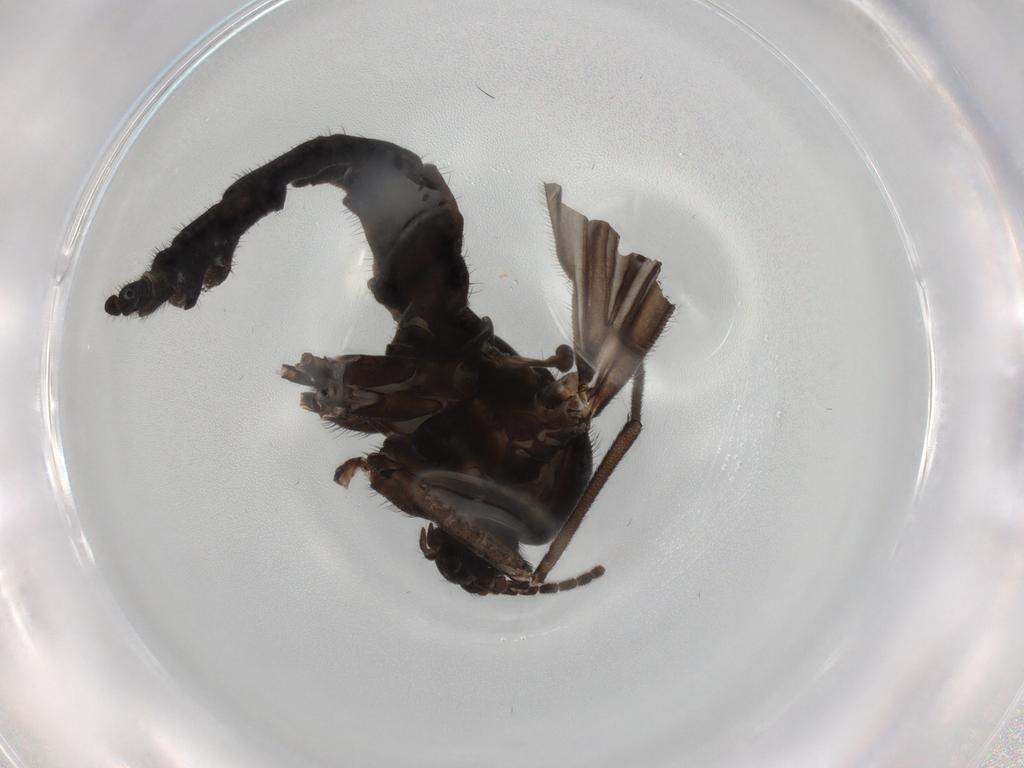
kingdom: Animalia
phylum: Arthropoda
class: Insecta
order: Diptera
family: Sciaridae
